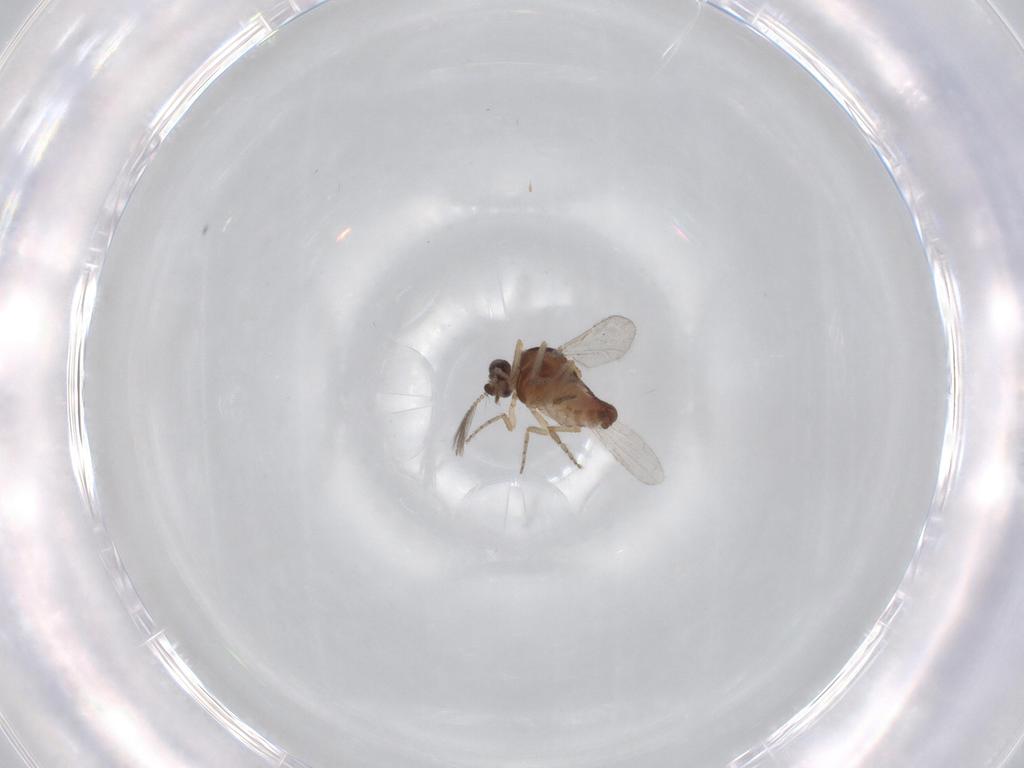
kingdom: Animalia
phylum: Arthropoda
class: Insecta
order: Diptera
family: Ceratopogonidae
